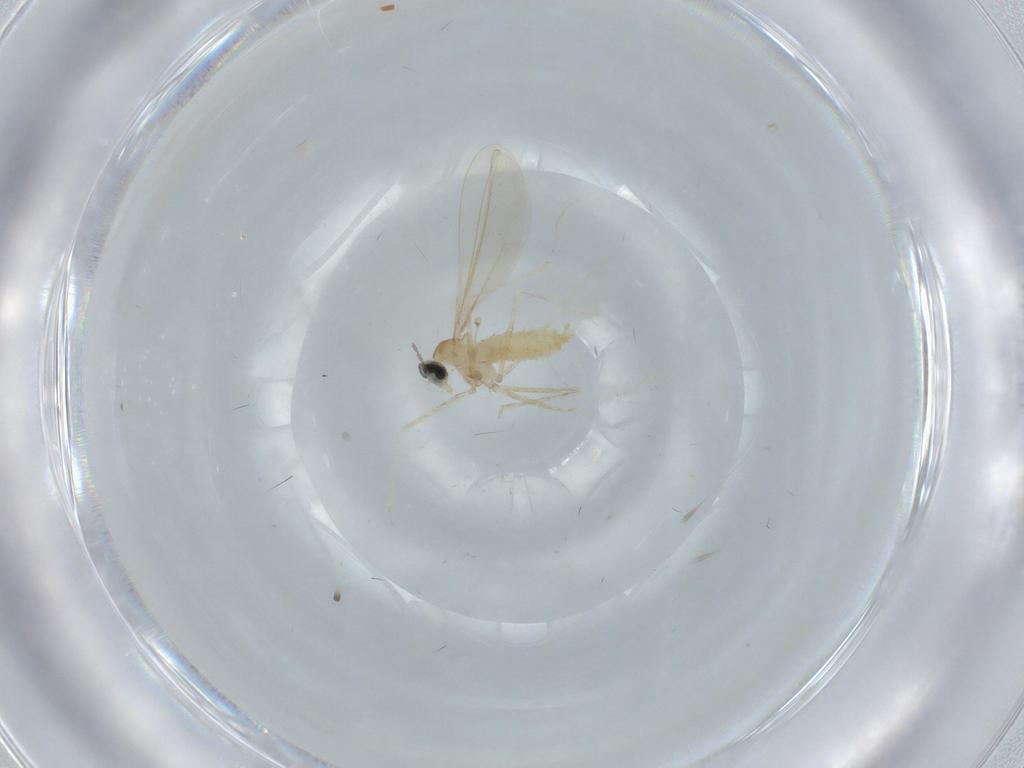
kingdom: Animalia
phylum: Arthropoda
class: Insecta
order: Diptera
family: Cecidomyiidae
